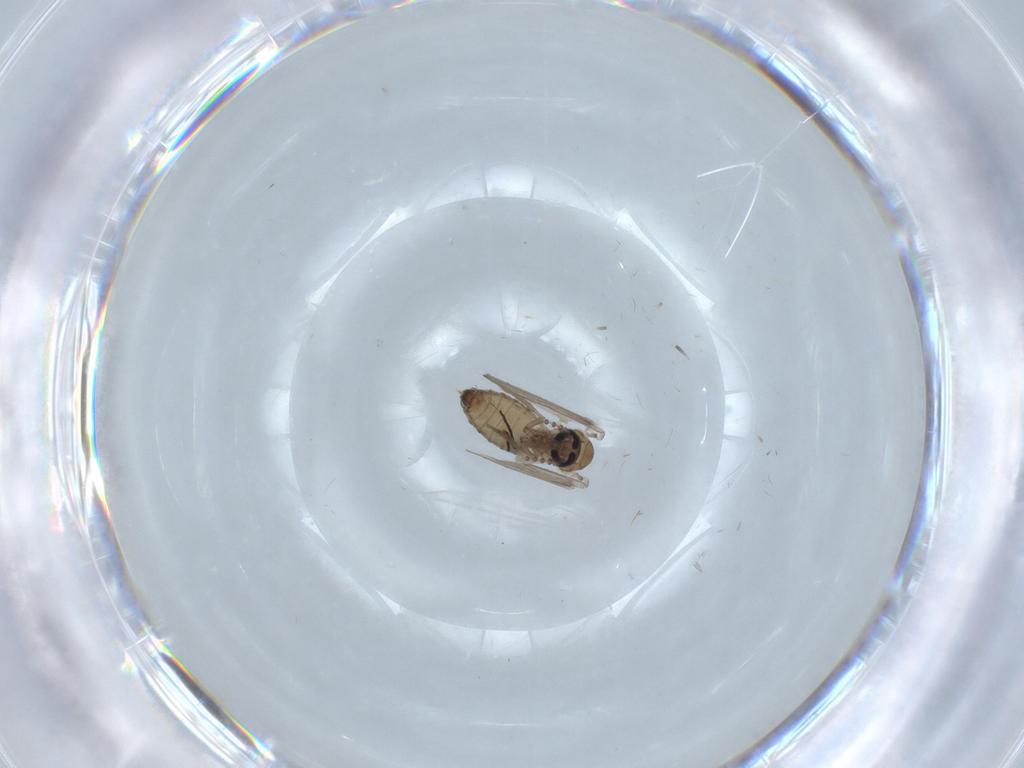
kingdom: Animalia
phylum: Arthropoda
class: Insecta
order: Diptera
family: Psychodidae
